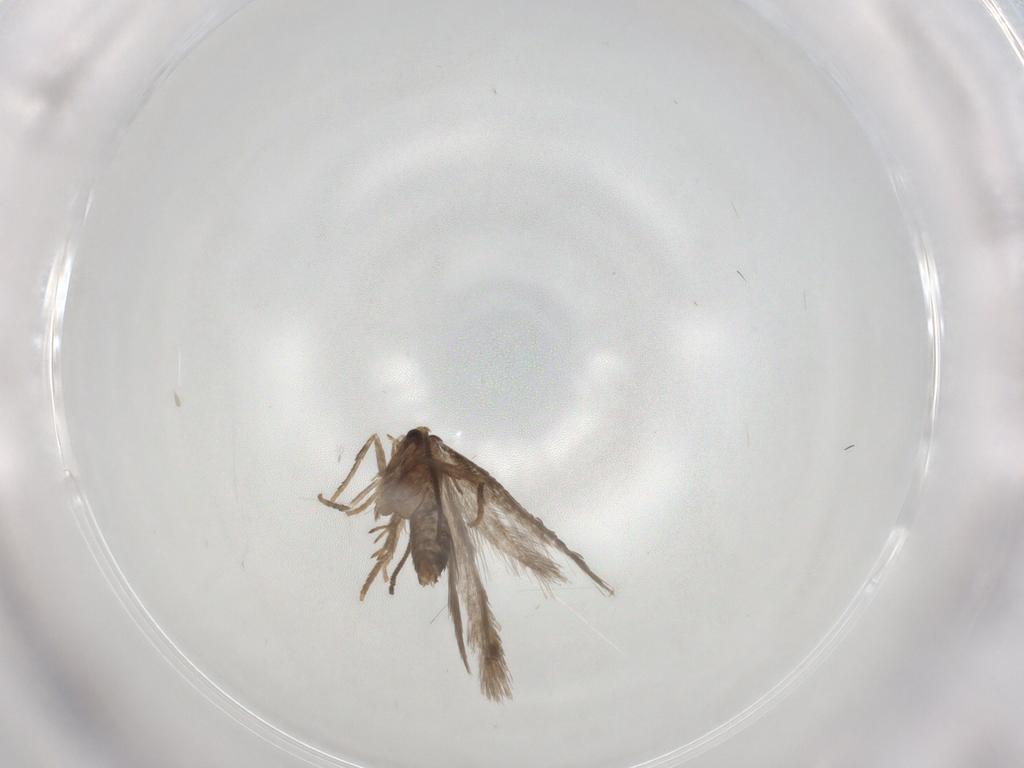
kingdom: Animalia
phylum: Arthropoda
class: Insecta
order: Lepidoptera
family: Nepticulidae
